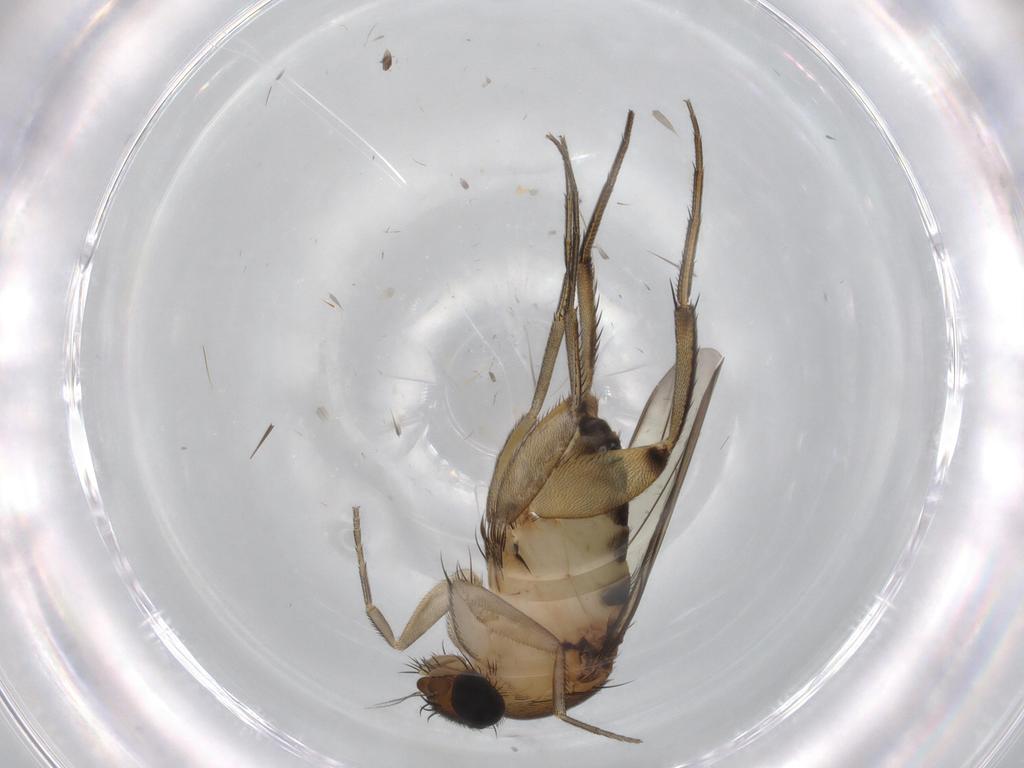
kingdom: Animalia
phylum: Arthropoda
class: Insecta
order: Diptera
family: Phoridae
